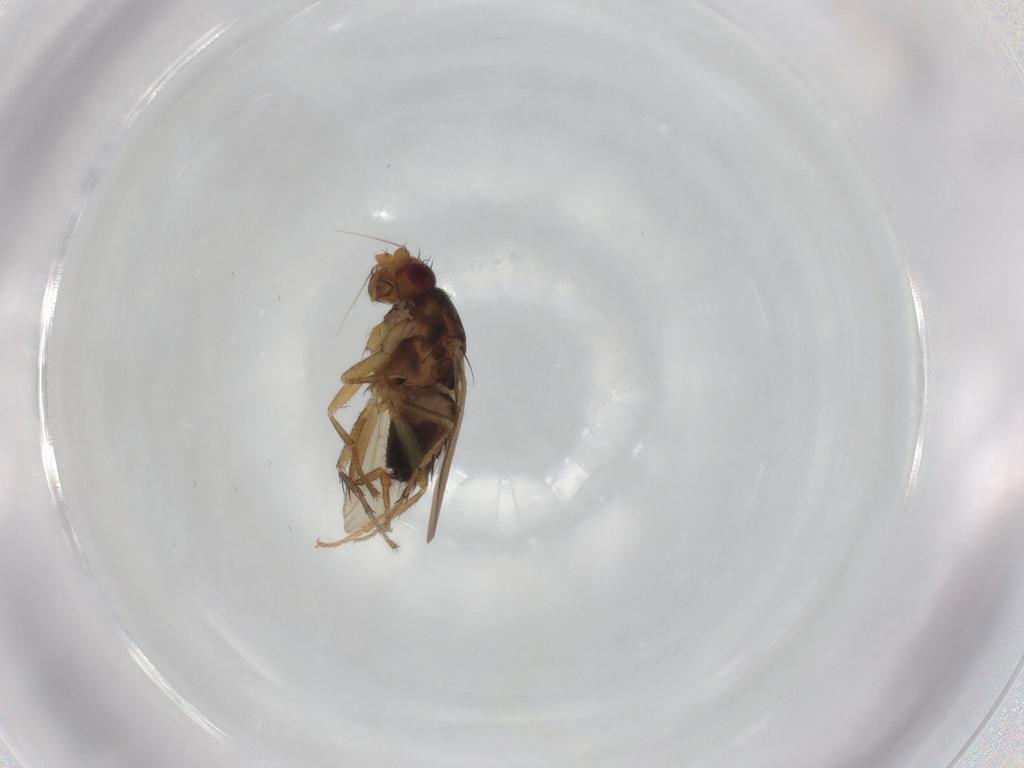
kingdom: Animalia
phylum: Arthropoda
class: Insecta
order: Diptera
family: Sphaeroceridae
